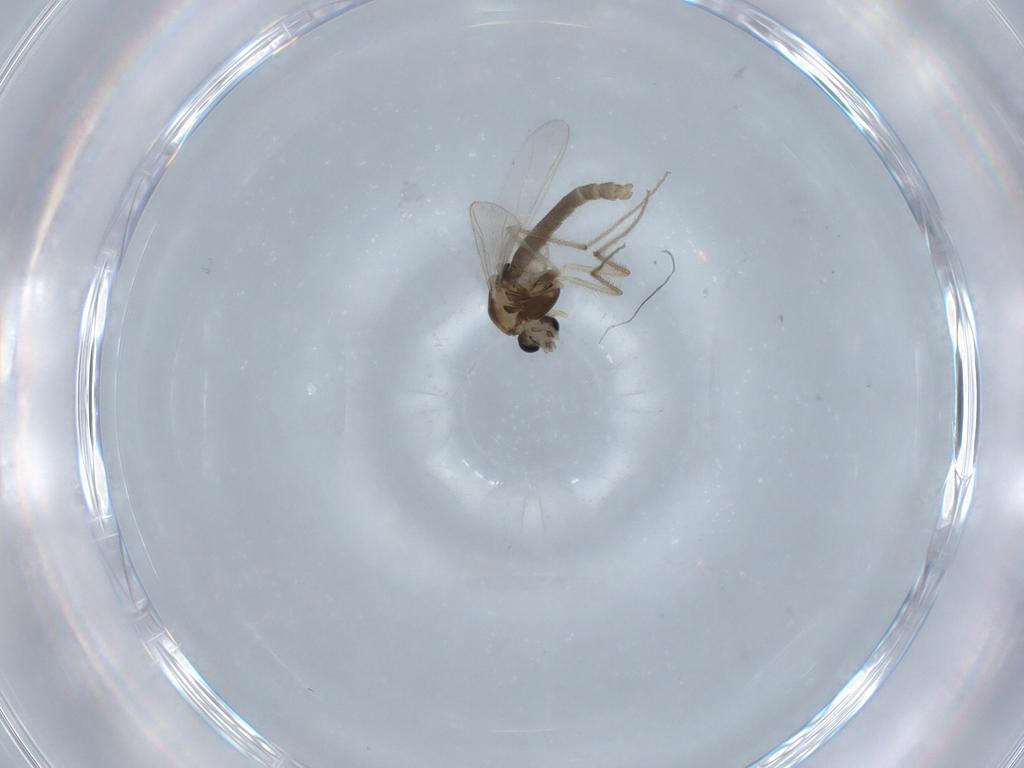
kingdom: Animalia
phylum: Arthropoda
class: Insecta
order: Diptera
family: Chironomidae
